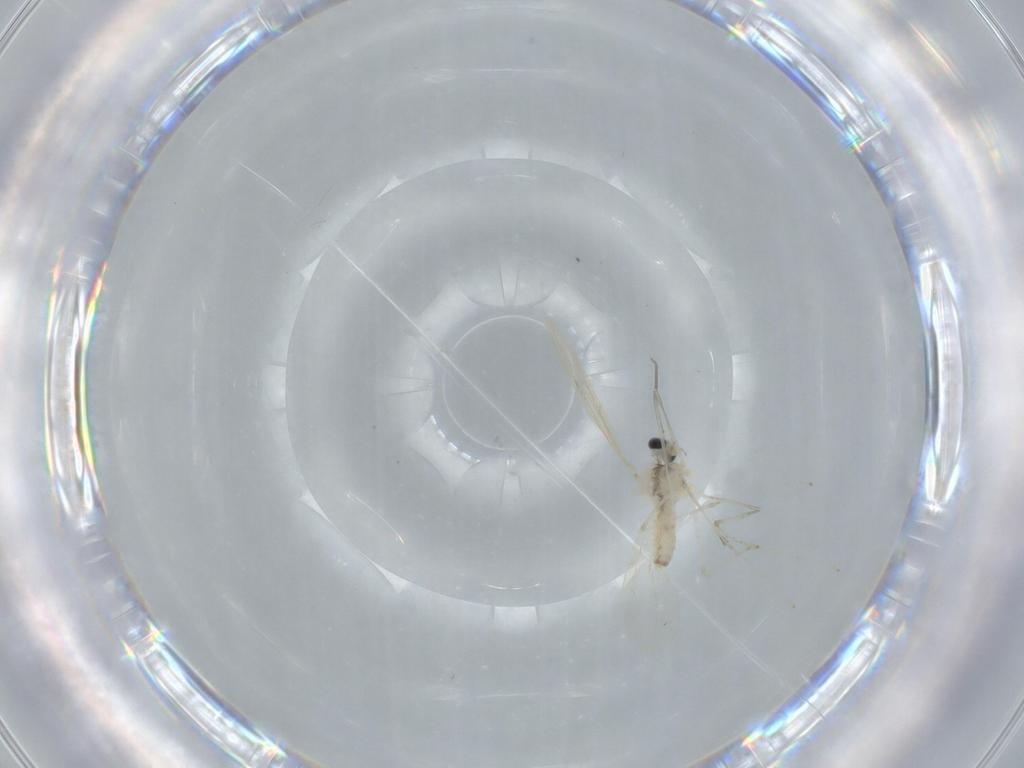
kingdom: Animalia
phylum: Arthropoda
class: Insecta
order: Diptera
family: Cecidomyiidae
